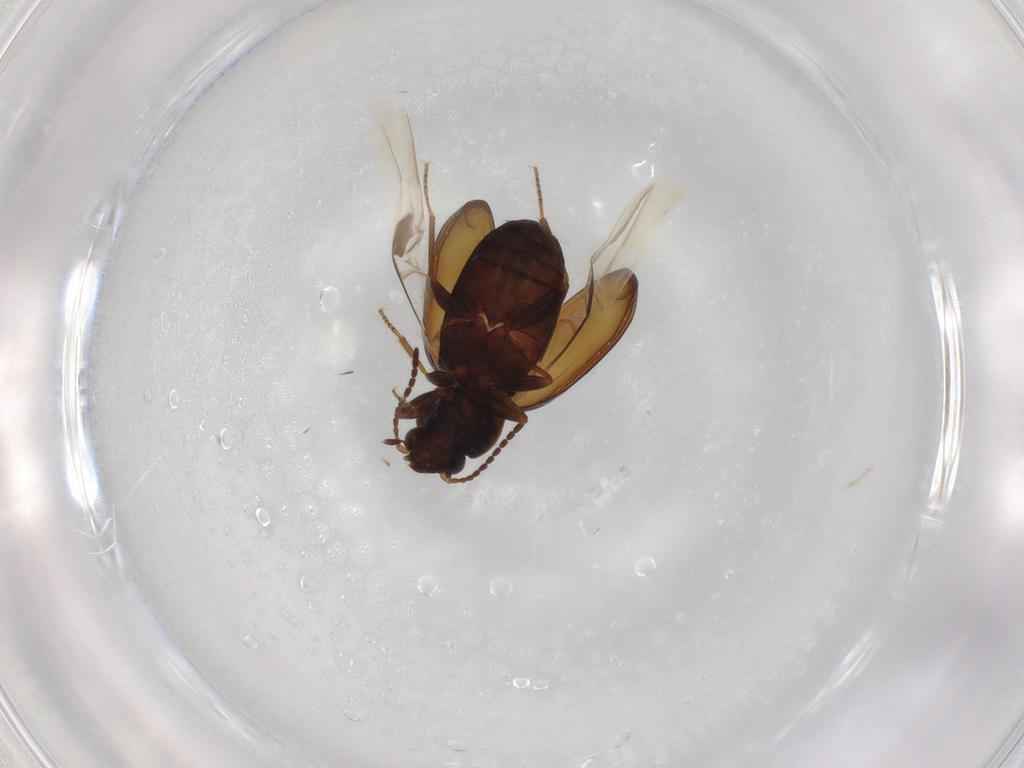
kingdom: Animalia
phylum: Arthropoda
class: Insecta
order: Coleoptera
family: Carabidae
